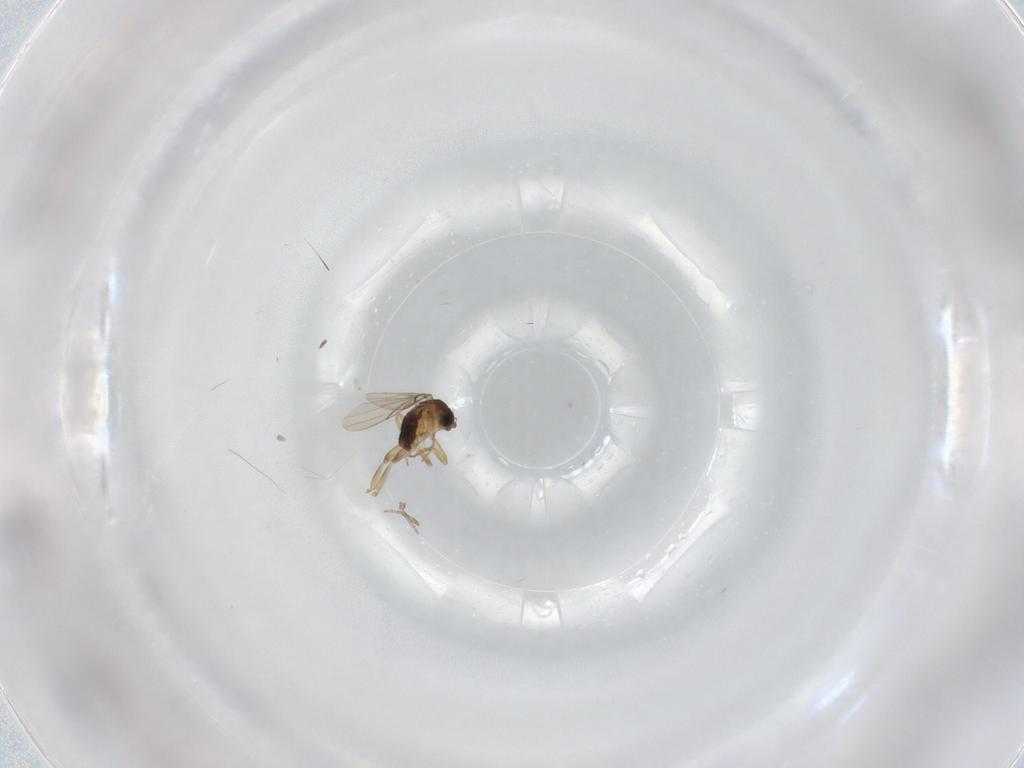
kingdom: Animalia
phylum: Arthropoda
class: Insecta
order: Diptera
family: Phoridae
